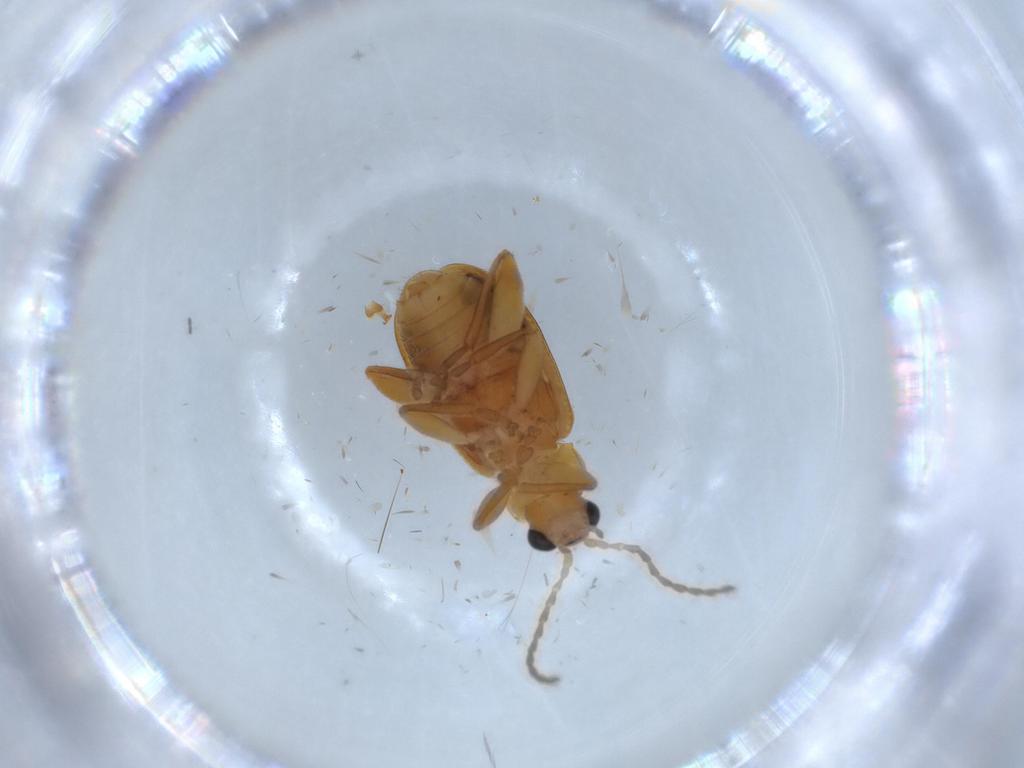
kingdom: Animalia
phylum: Arthropoda
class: Insecta
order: Coleoptera
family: Chrysomelidae
